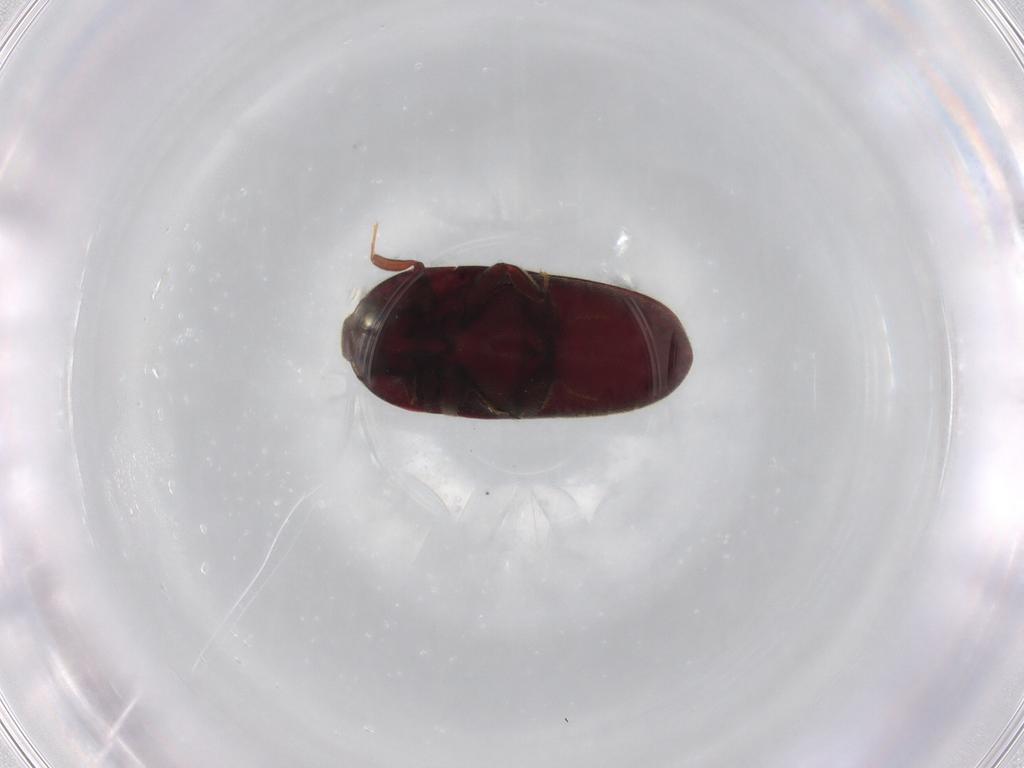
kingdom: Animalia
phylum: Arthropoda
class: Insecta
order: Coleoptera
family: Throscidae
